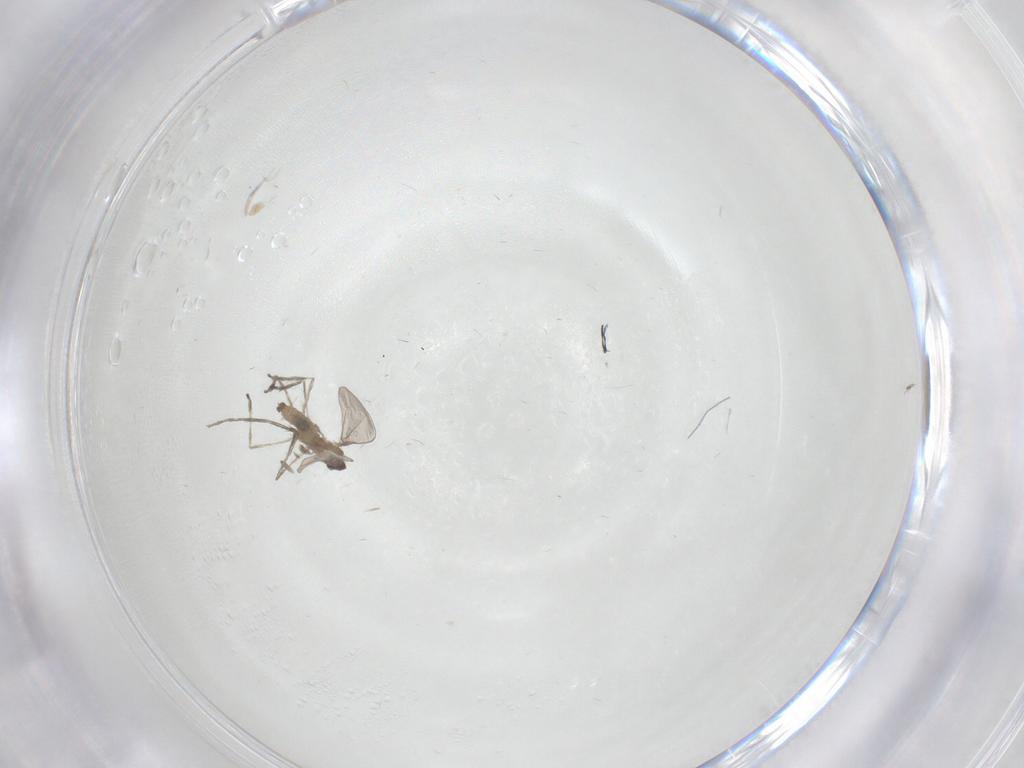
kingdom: Animalia
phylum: Arthropoda
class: Insecta
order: Diptera
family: Cecidomyiidae
